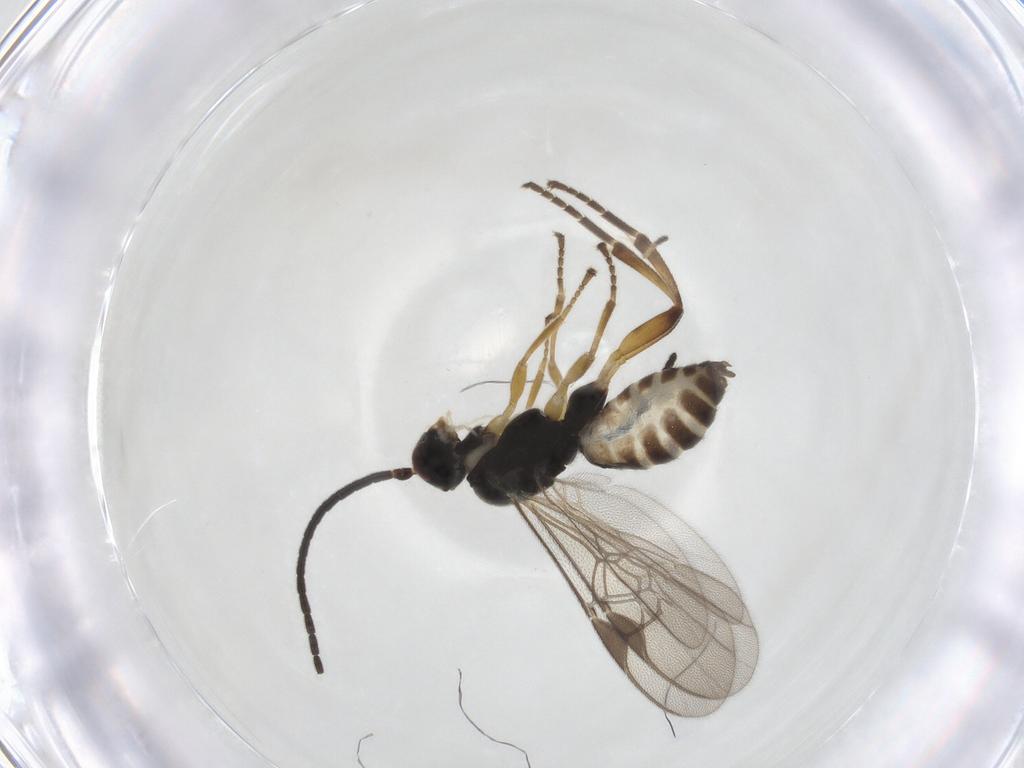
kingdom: Animalia
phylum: Arthropoda
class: Insecta
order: Hymenoptera
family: Braconidae
